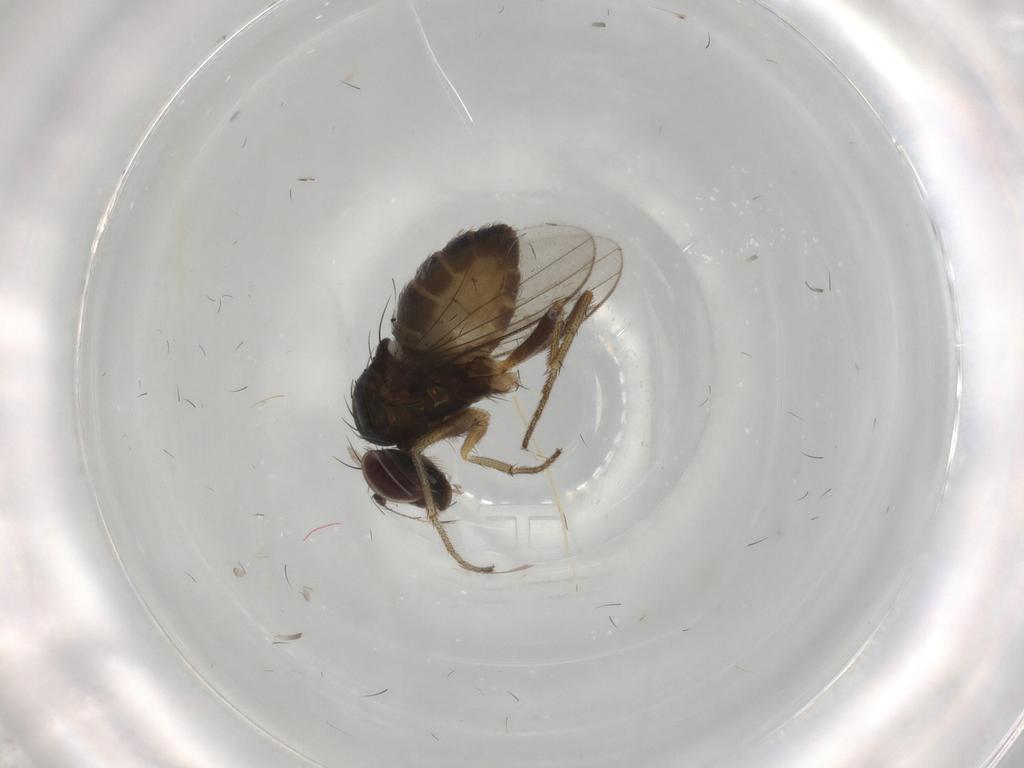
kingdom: Animalia
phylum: Arthropoda
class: Insecta
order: Diptera
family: Chironomidae
